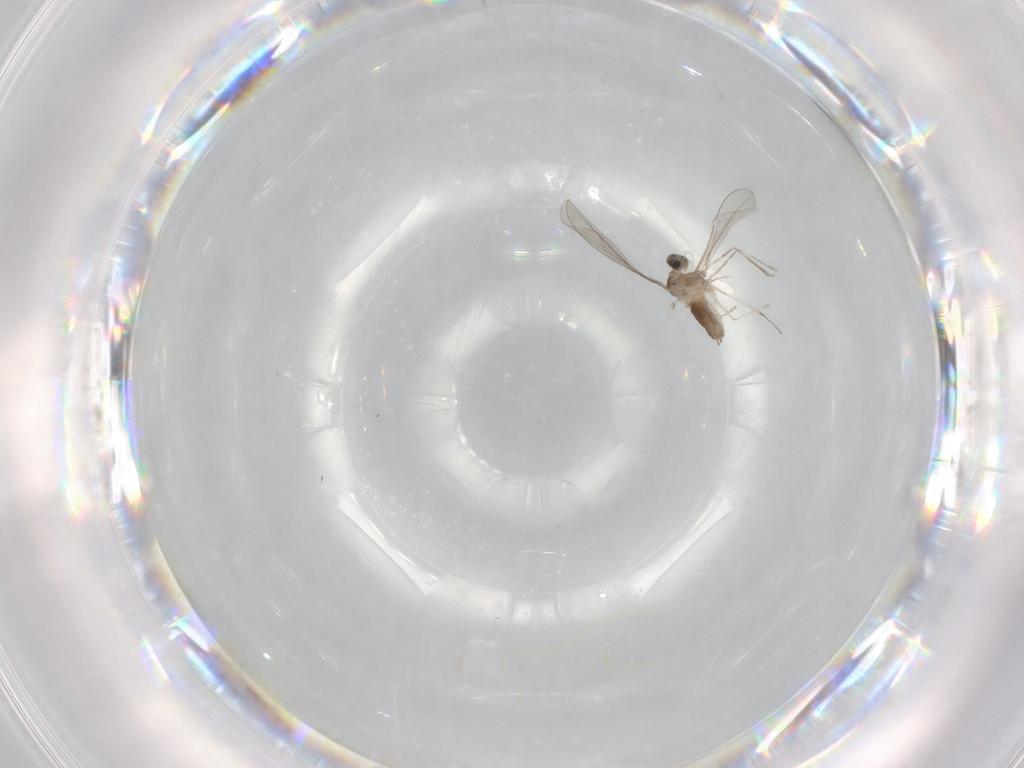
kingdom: Animalia
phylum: Arthropoda
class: Insecta
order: Diptera
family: Cecidomyiidae
